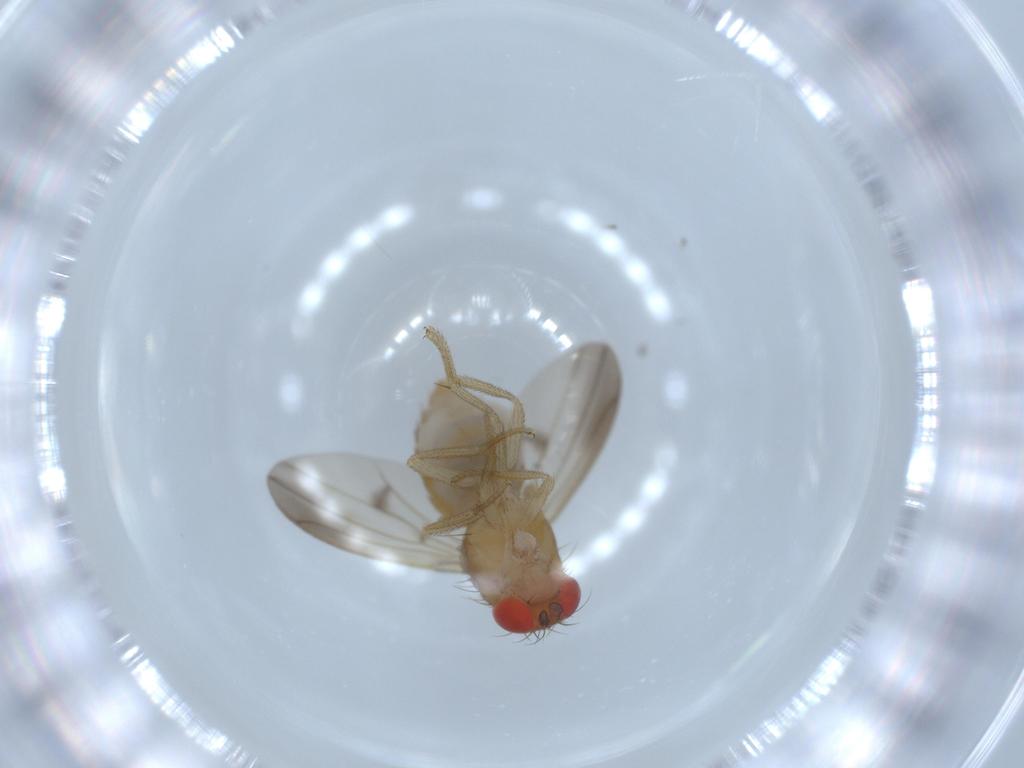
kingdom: Animalia
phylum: Arthropoda
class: Insecta
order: Diptera
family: Drosophilidae
